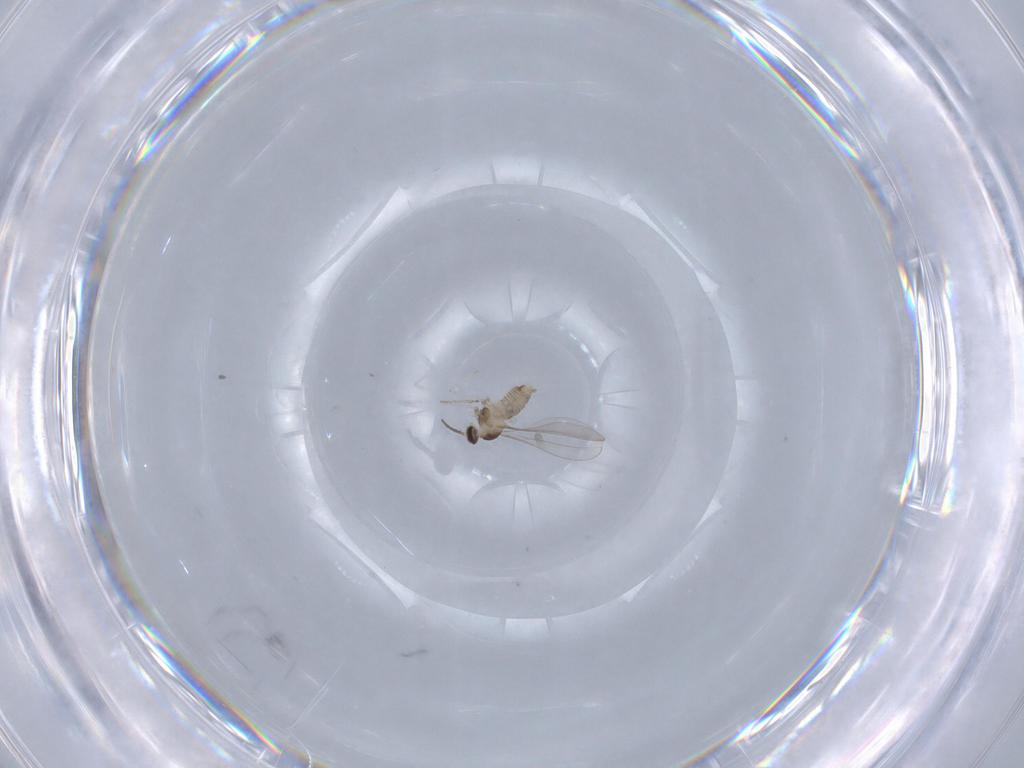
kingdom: Animalia
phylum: Arthropoda
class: Insecta
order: Diptera
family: Cecidomyiidae
